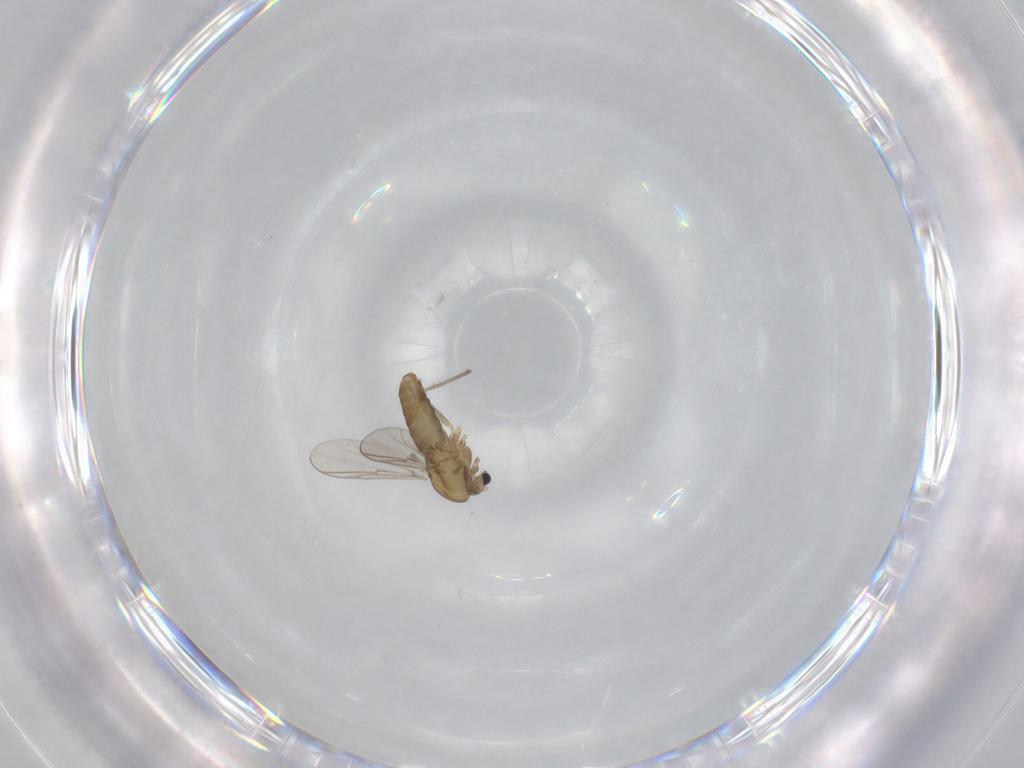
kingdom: Animalia
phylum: Arthropoda
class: Insecta
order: Diptera
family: Chironomidae
